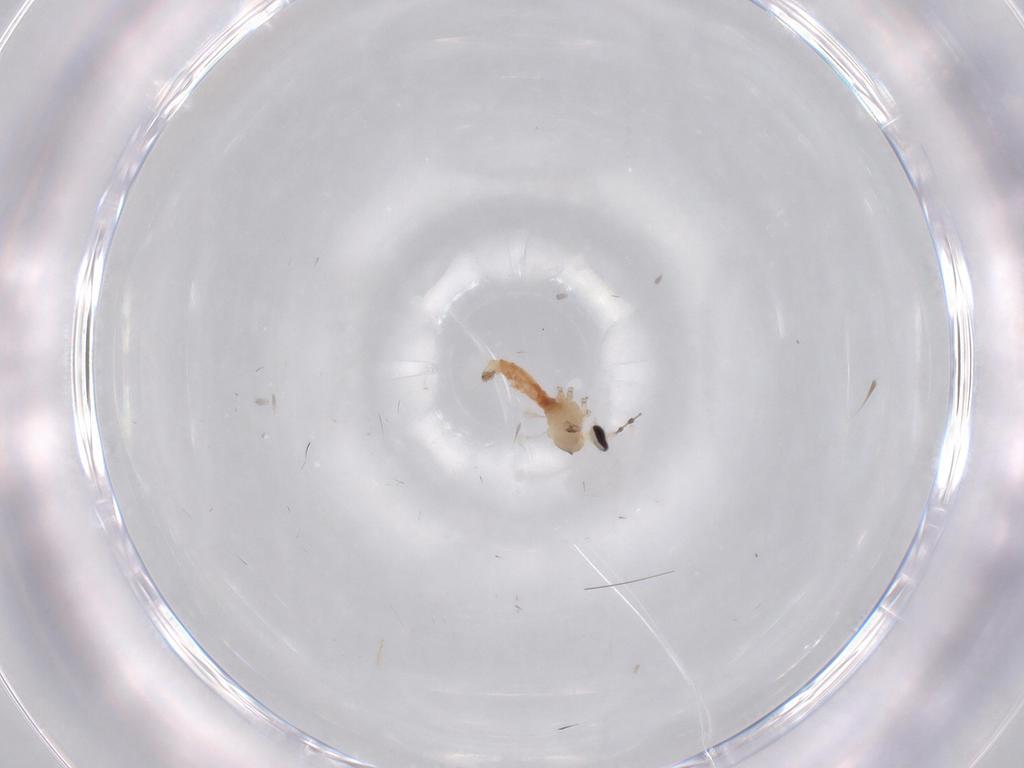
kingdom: Animalia
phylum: Arthropoda
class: Insecta
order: Diptera
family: Cecidomyiidae
